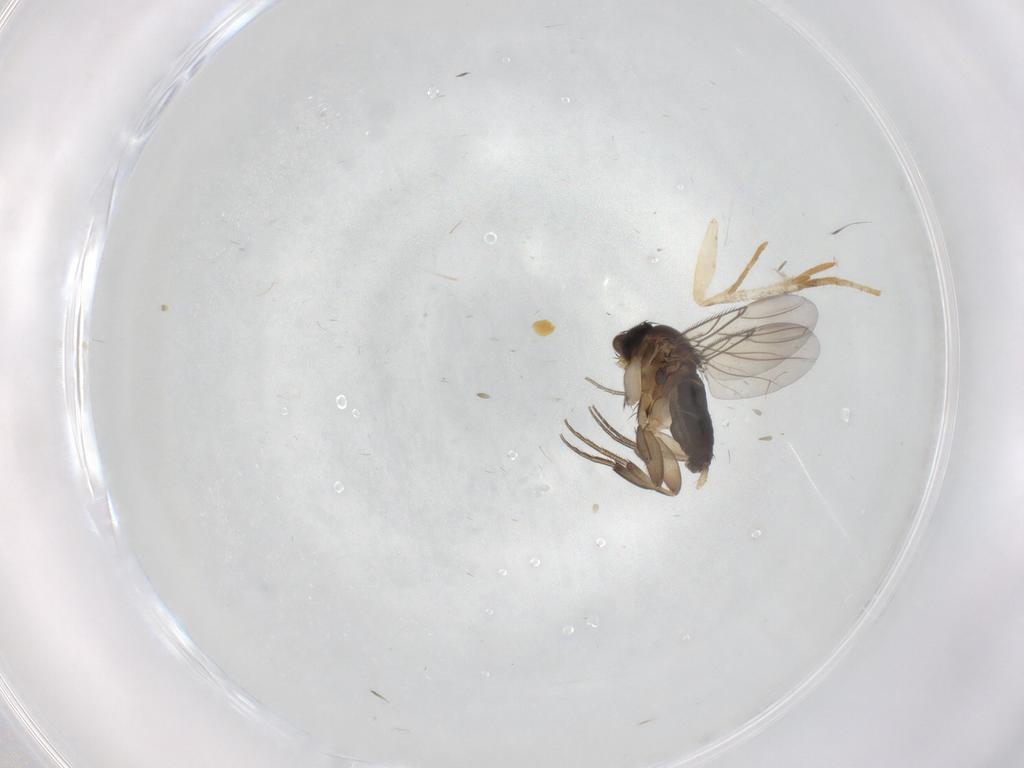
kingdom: Animalia
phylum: Arthropoda
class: Insecta
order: Diptera
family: Phoridae
